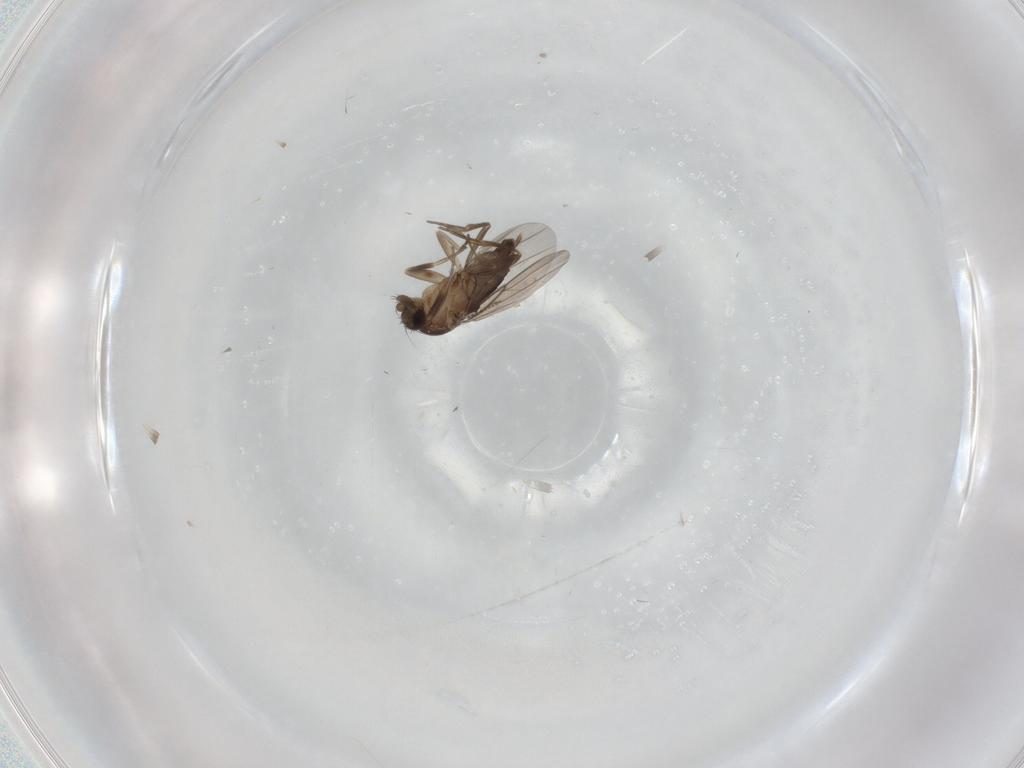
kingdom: Animalia
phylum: Arthropoda
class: Insecta
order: Diptera
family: Phoridae
